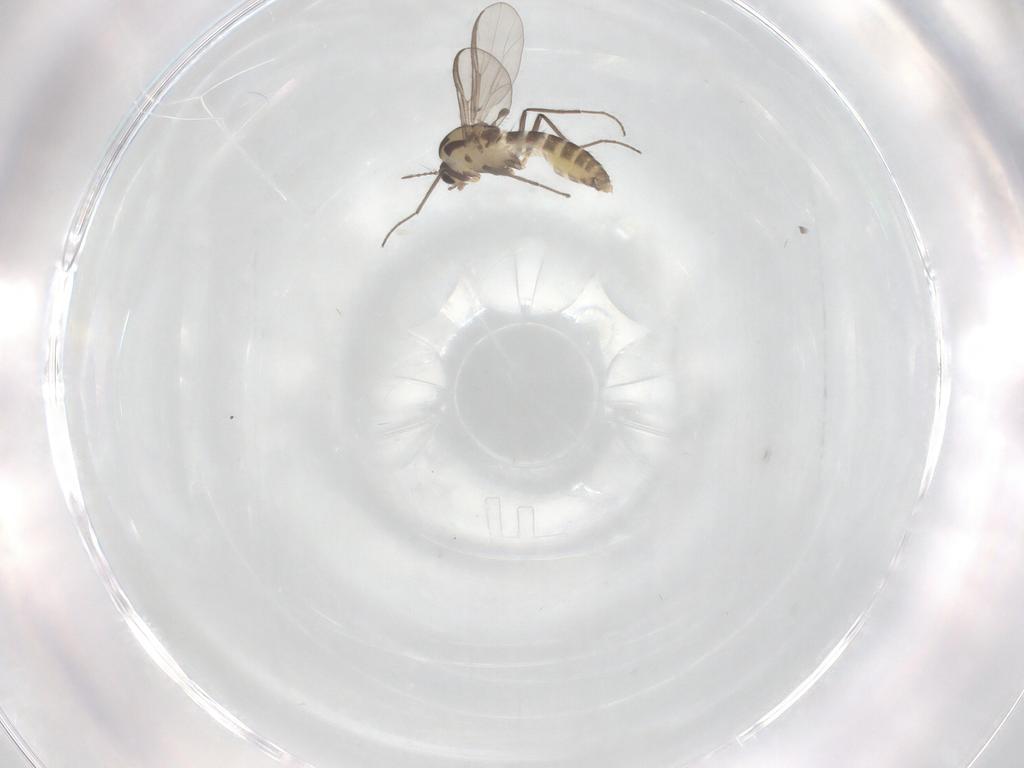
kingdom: Animalia
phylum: Arthropoda
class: Insecta
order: Diptera
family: Chironomidae
